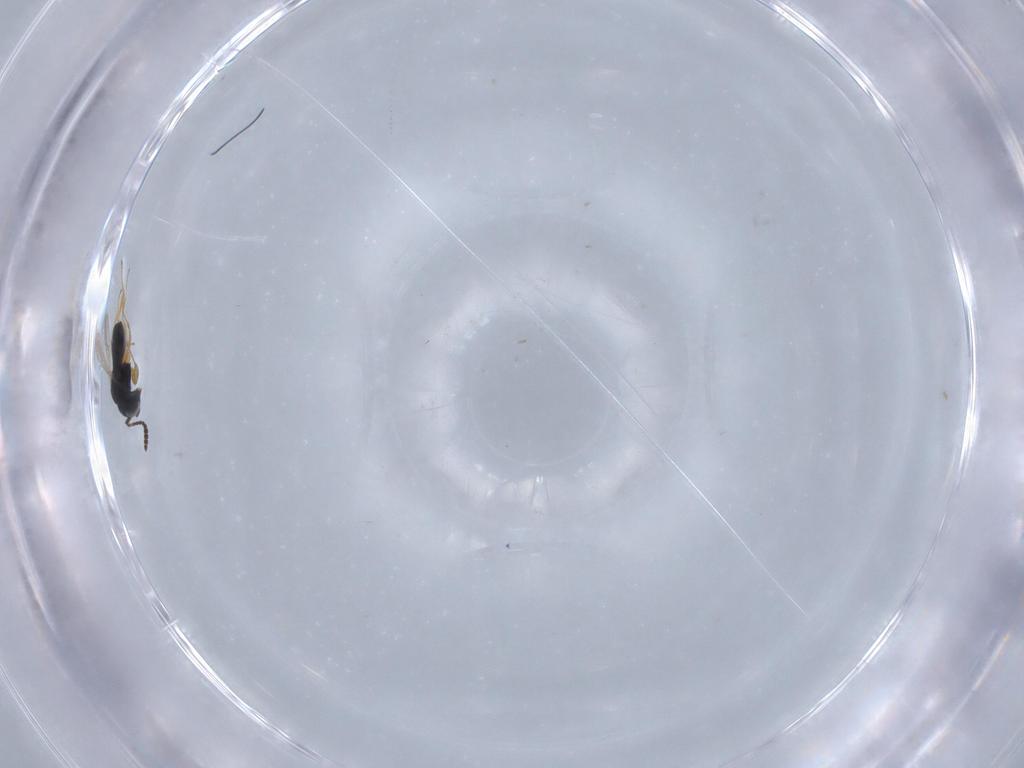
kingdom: Animalia
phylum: Arthropoda
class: Insecta
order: Hymenoptera
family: Scelionidae
